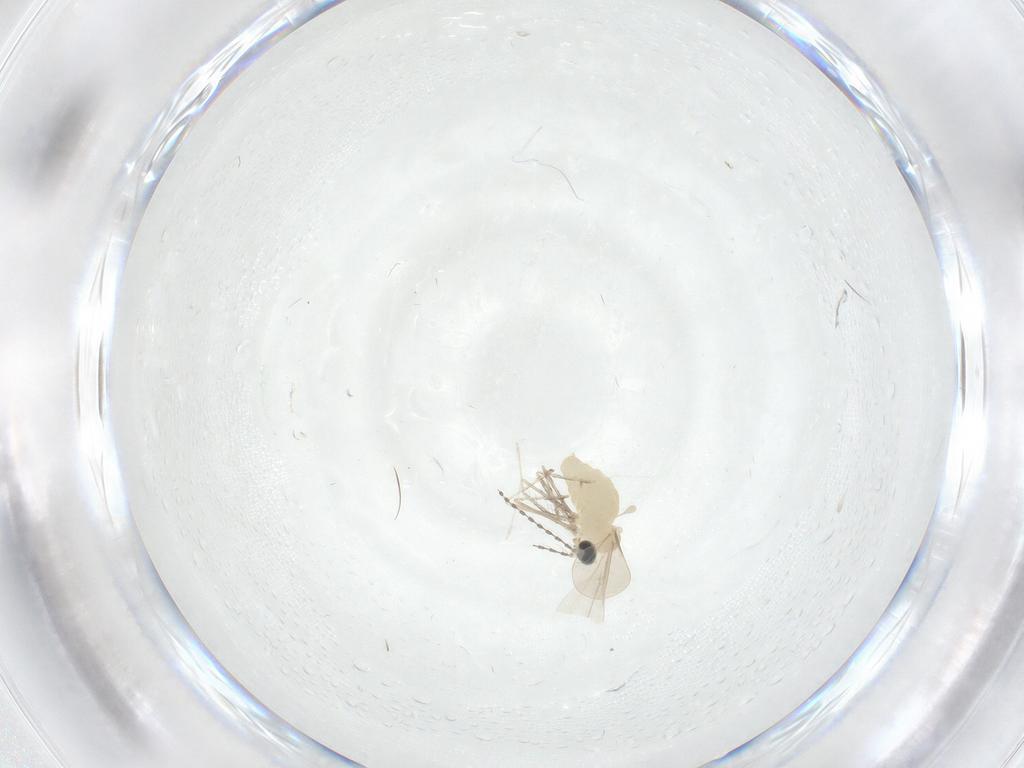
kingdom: Animalia
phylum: Arthropoda
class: Insecta
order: Diptera
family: Cecidomyiidae
